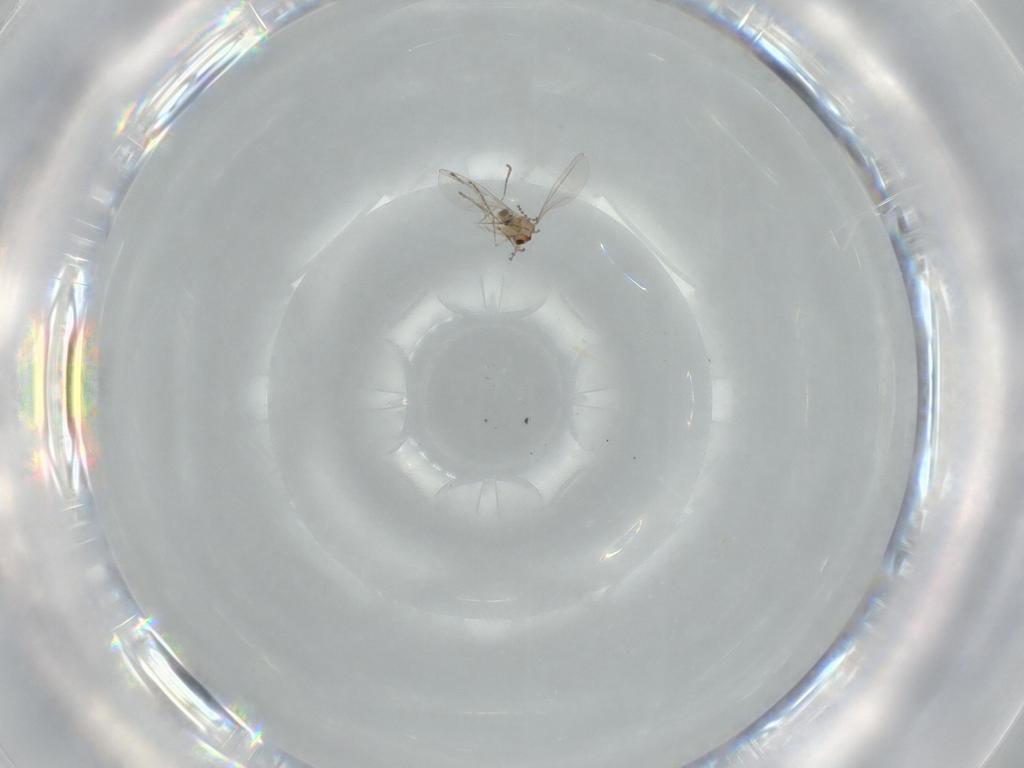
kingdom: Animalia
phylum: Arthropoda
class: Insecta
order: Diptera
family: Cecidomyiidae
